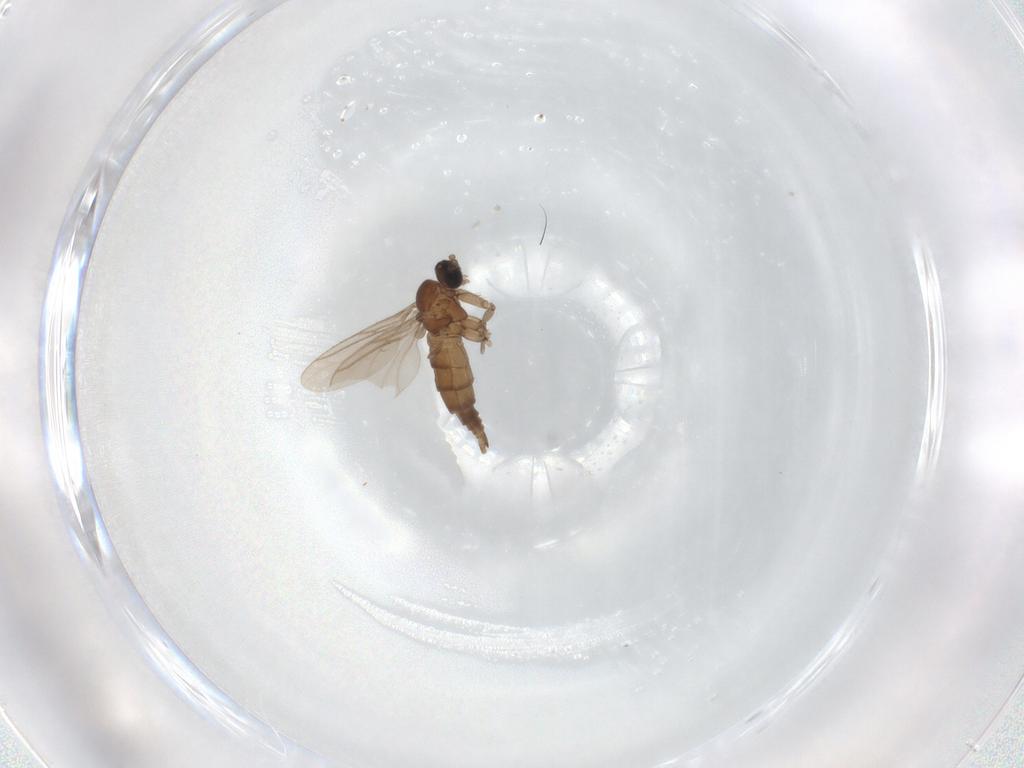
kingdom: Animalia
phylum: Arthropoda
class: Insecta
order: Diptera
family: Sciaridae
